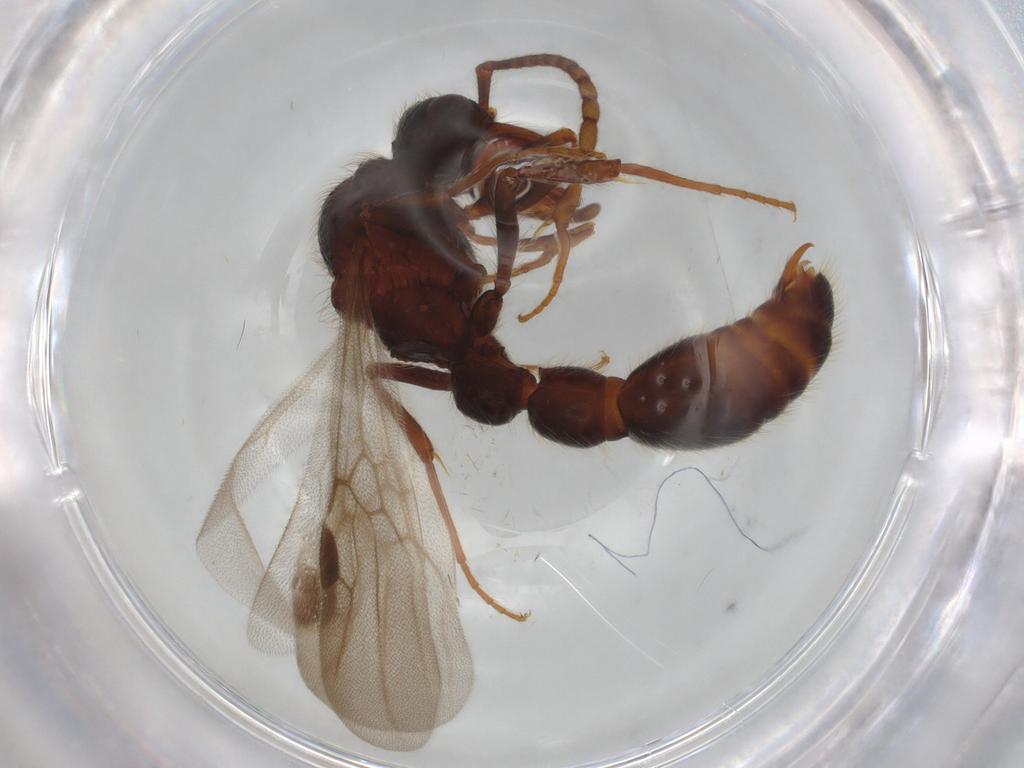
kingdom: Animalia
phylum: Arthropoda
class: Insecta
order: Hymenoptera
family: Formicidae
